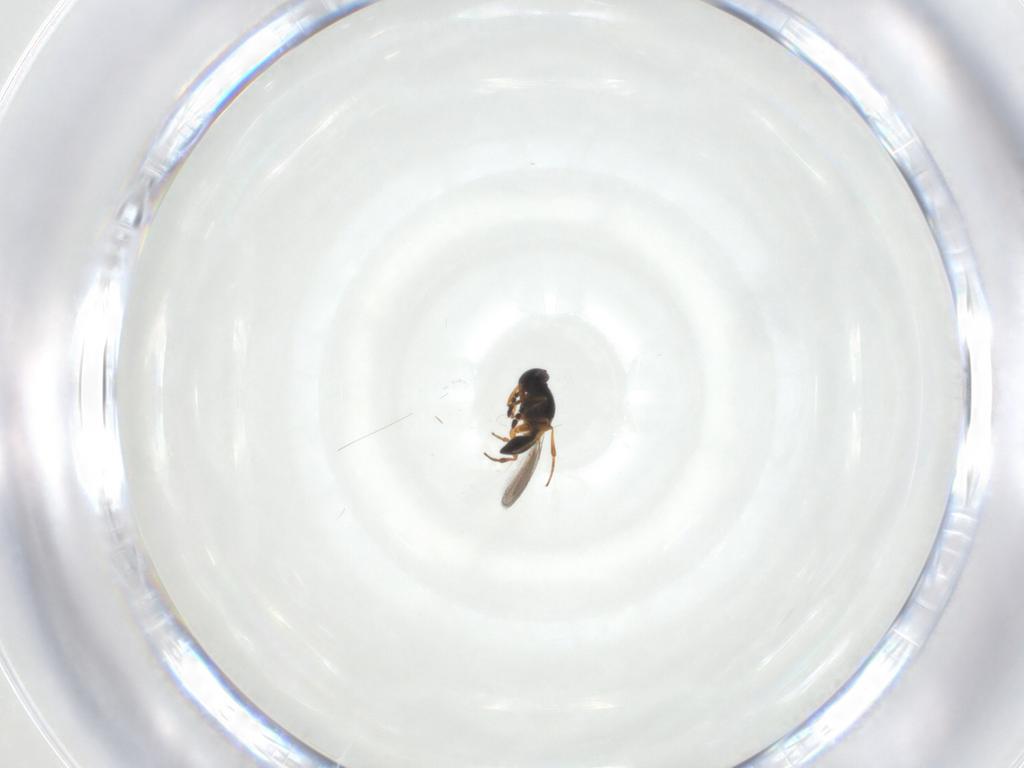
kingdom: Animalia
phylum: Arthropoda
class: Insecta
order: Hymenoptera
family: Platygastridae
